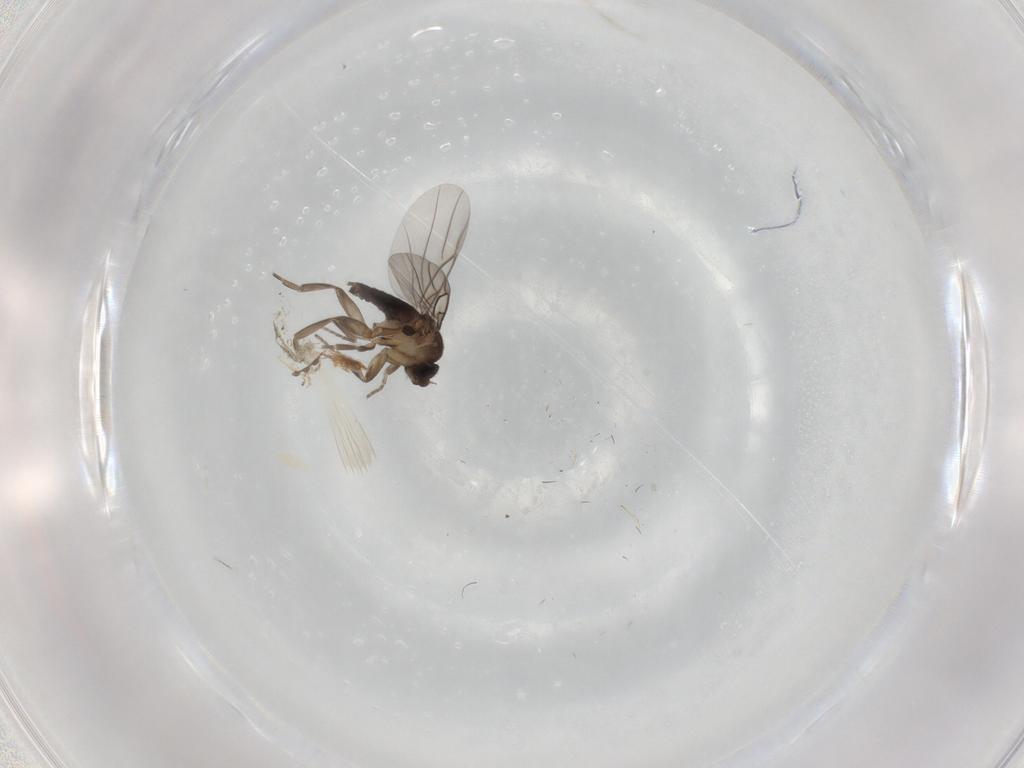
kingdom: Animalia
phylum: Arthropoda
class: Insecta
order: Diptera
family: Phoridae
